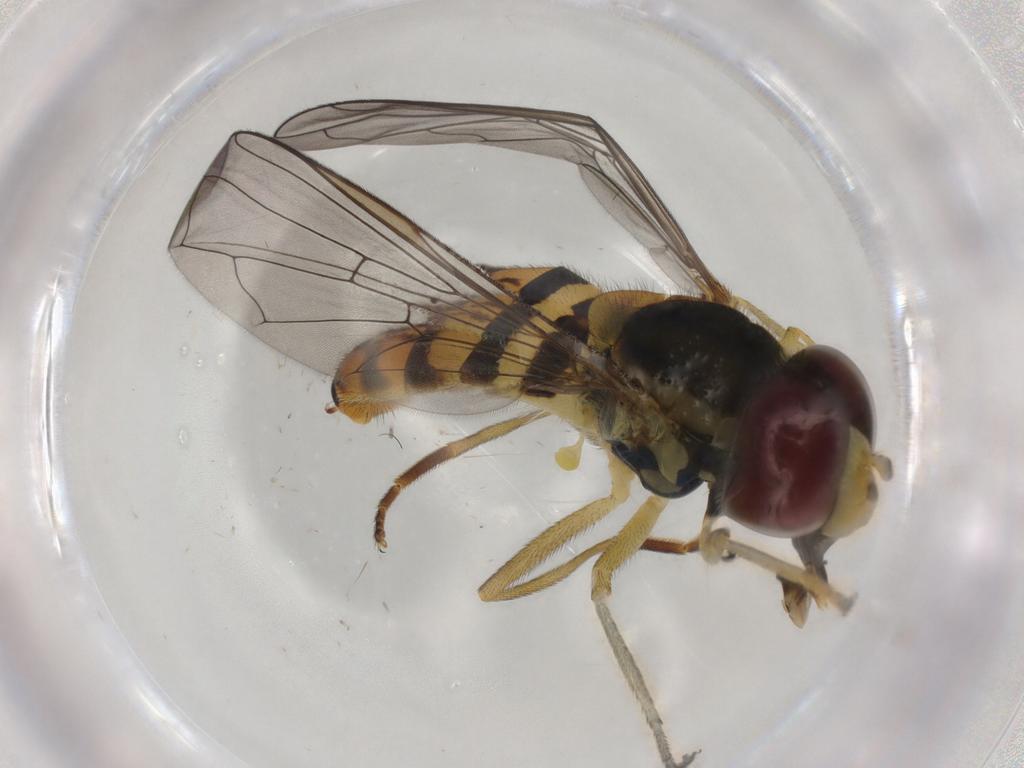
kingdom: Animalia
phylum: Arthropoda
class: Insecta
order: Diptera
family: Syrphidae
